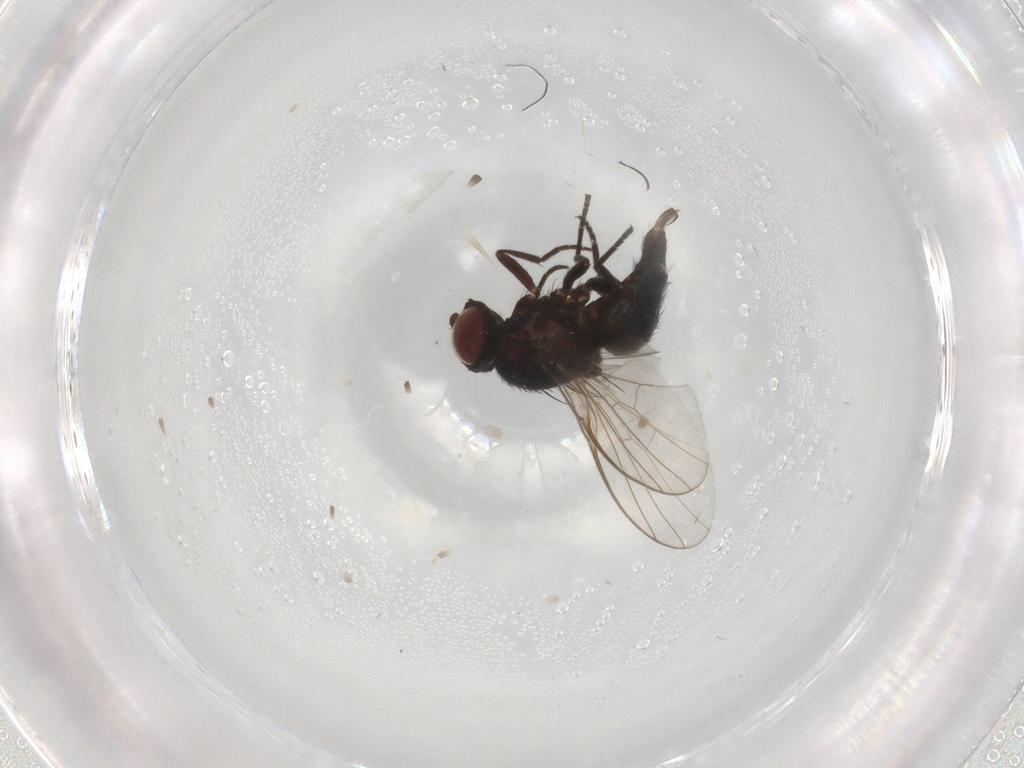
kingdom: Animalia
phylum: Arthropoda
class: Insecta
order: Diptera
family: Agromyzidae
